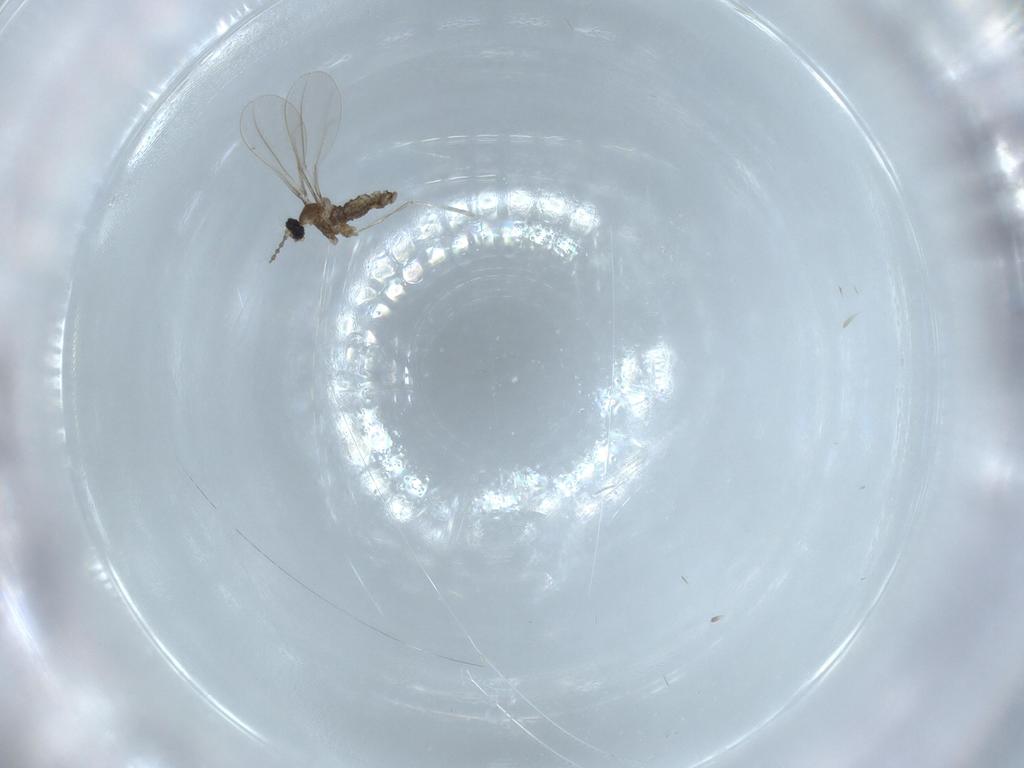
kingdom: Animalia
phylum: Arthropoda
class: Insecta
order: Diptera
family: Cecidomyiidae
